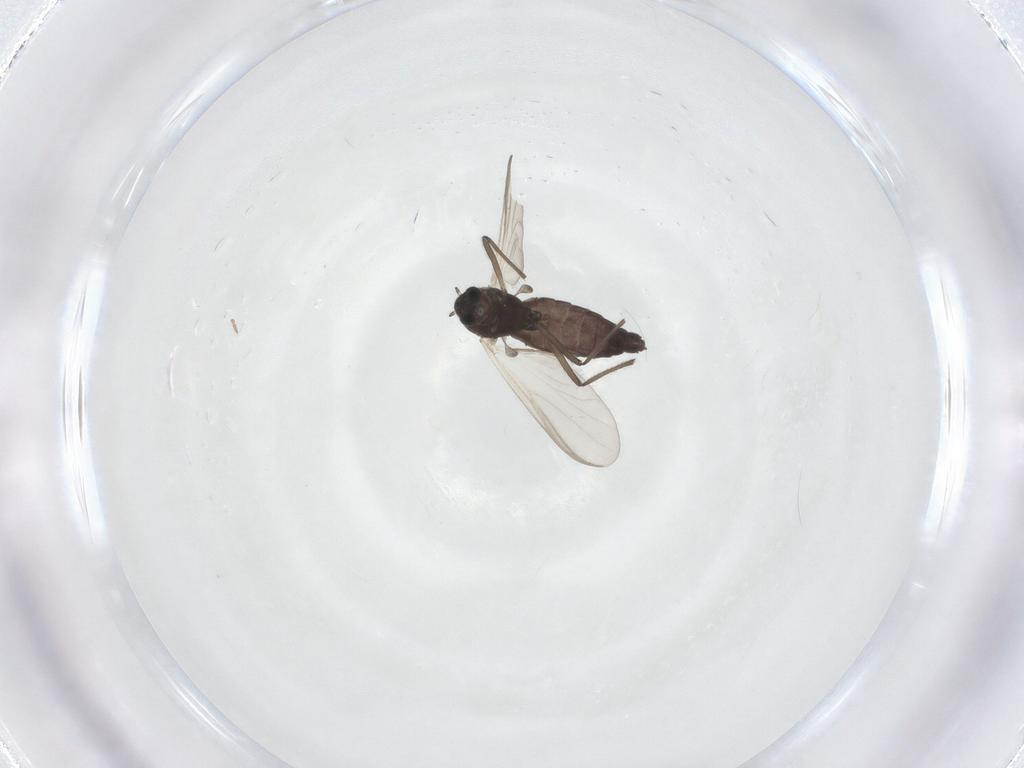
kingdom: Animalia
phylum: Arthropoda
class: Insecta
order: Diptera
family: Chironomidae
